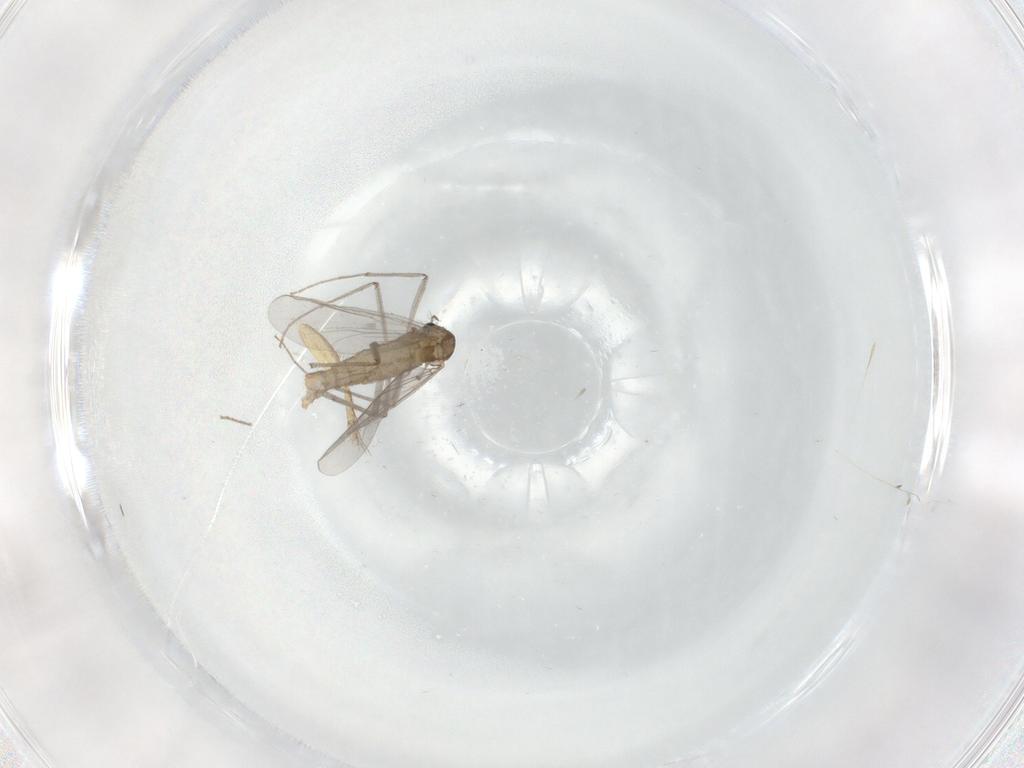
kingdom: Animalia
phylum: Arthropoda
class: Insecta
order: Diptera
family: Chironomidae
